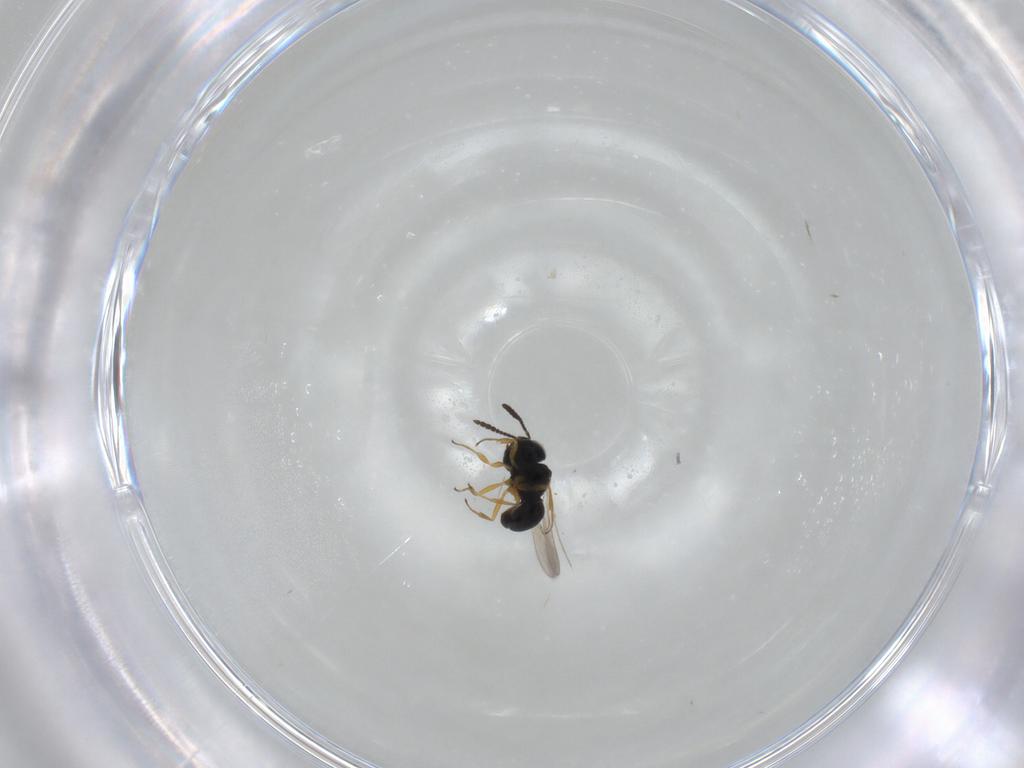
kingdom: Animalia
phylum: Arthropoda
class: Insecta
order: Hymenoptera
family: Scelionidae
